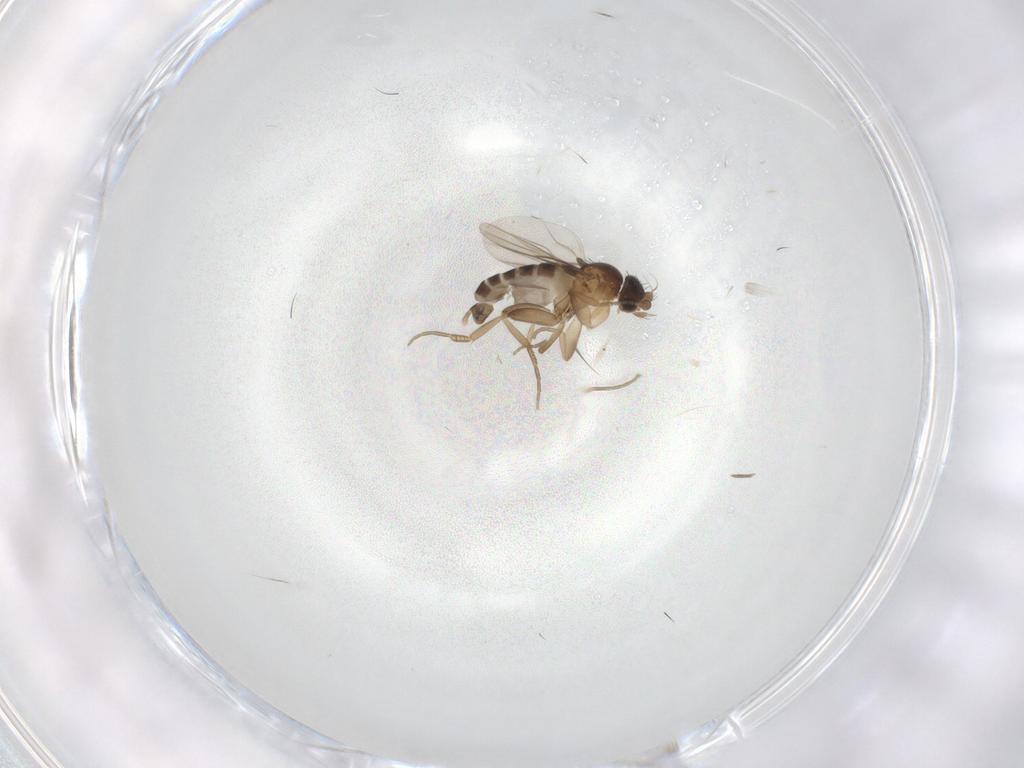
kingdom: Animalia
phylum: Arthropoda
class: Insecta
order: Diptera
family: Phoridae
